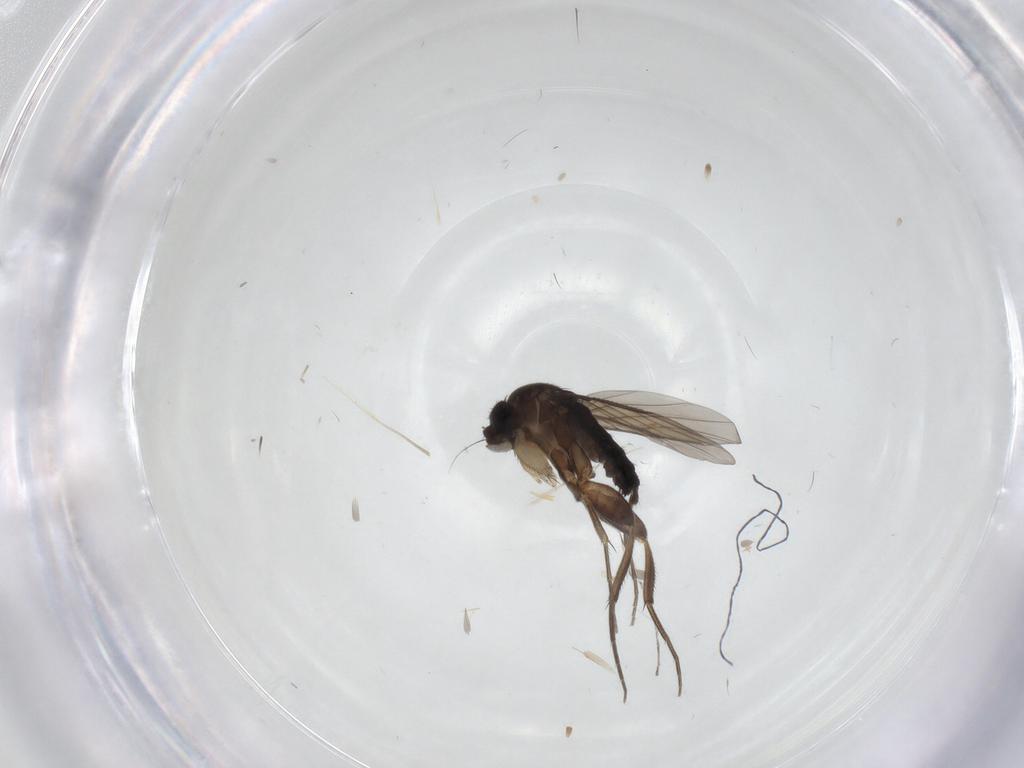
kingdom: Animalia
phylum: Arthropoda
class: Insecta
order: Diptera
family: Phoridae
